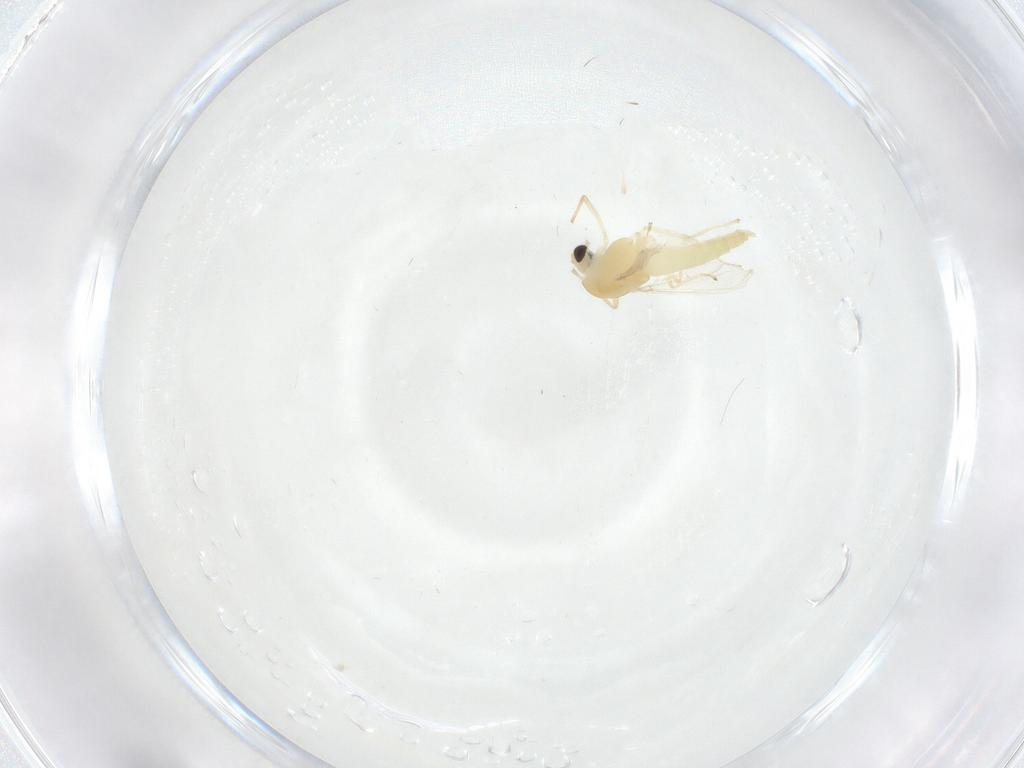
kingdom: Animalia
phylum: Arthropoda
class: Insecta
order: Diptera
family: Chironomidae
